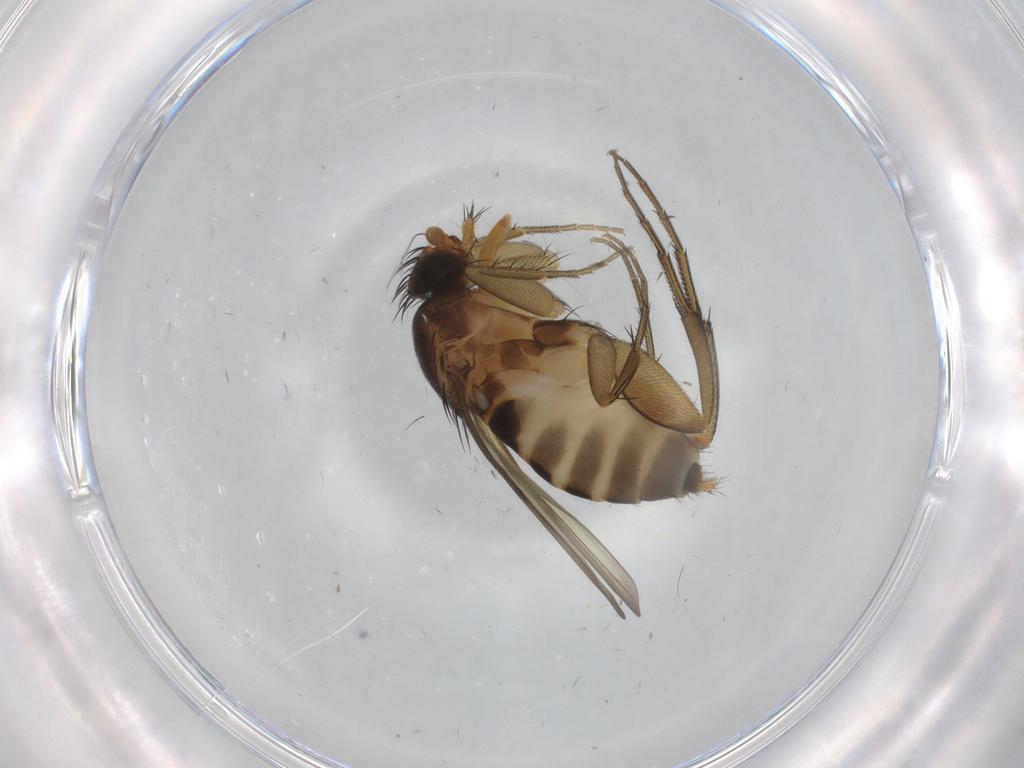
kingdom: Animalia
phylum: Arthropoda
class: Insecta
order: Diptera
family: Phoridae
